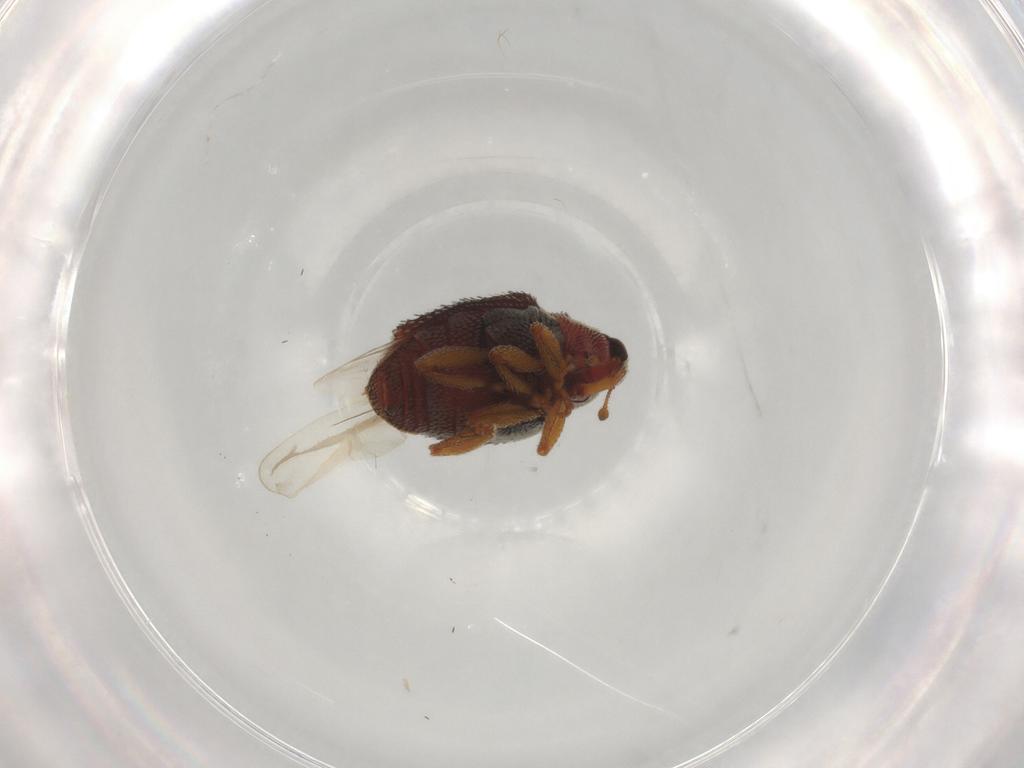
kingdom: Animalia
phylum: Arthropoda
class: Insecta
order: Coleoptera
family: Curculionidae
